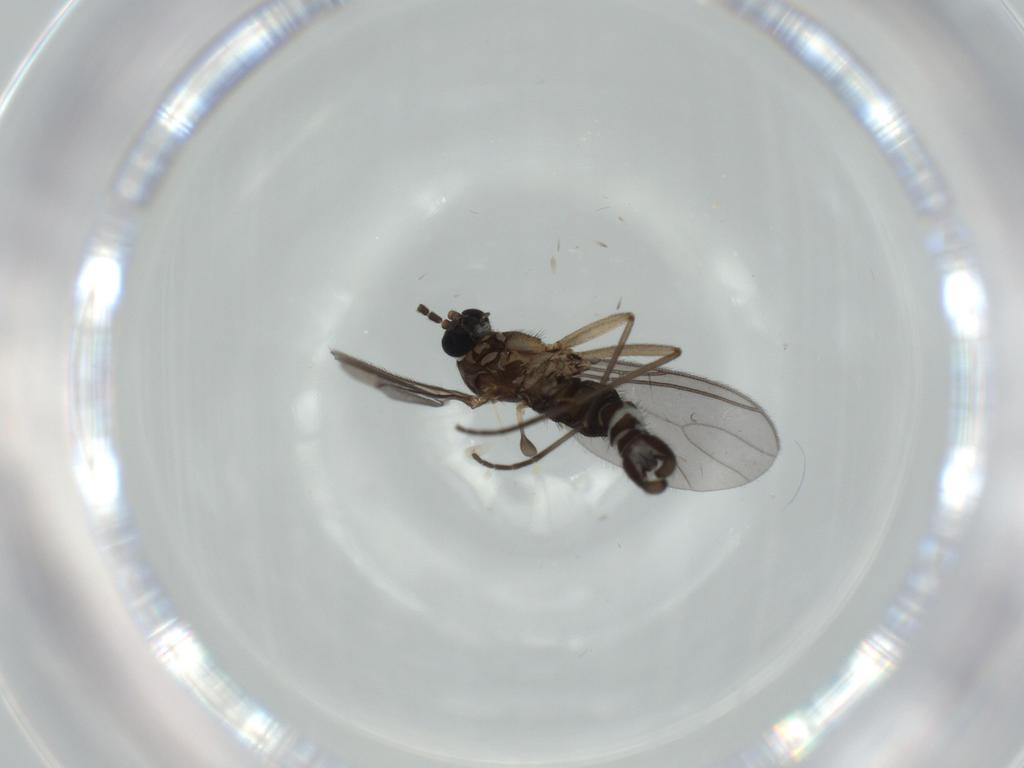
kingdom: Animalia
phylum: Arthropoda
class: Insecta
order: Diptera
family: Sciaridae
